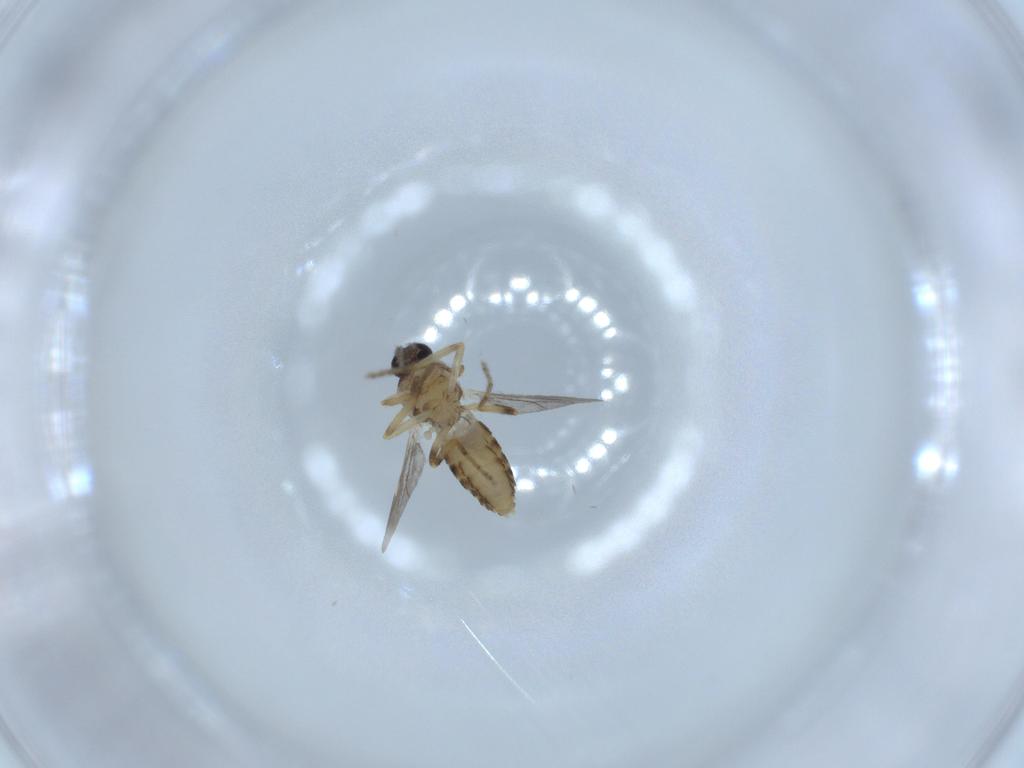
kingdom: Animalia
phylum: Arthropoda
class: Insecta
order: Diptera
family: Ceratopogonidae
